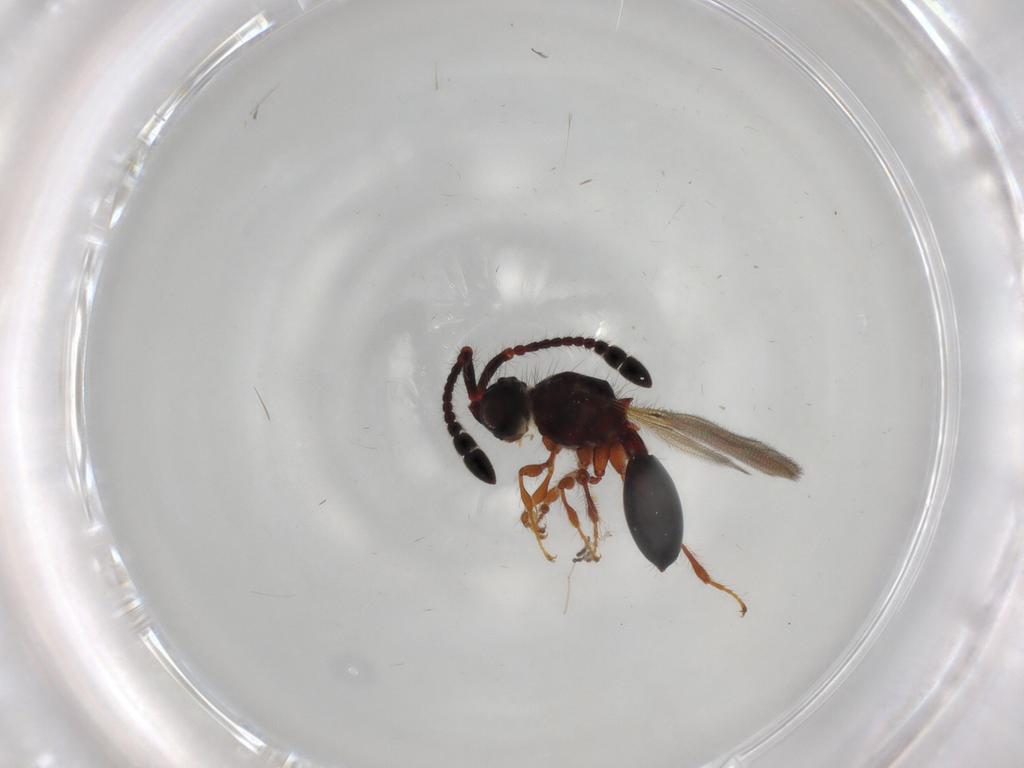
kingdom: Animalia
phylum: Arthropoda
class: Insecta
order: Hymenoptera
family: Diapriidae
